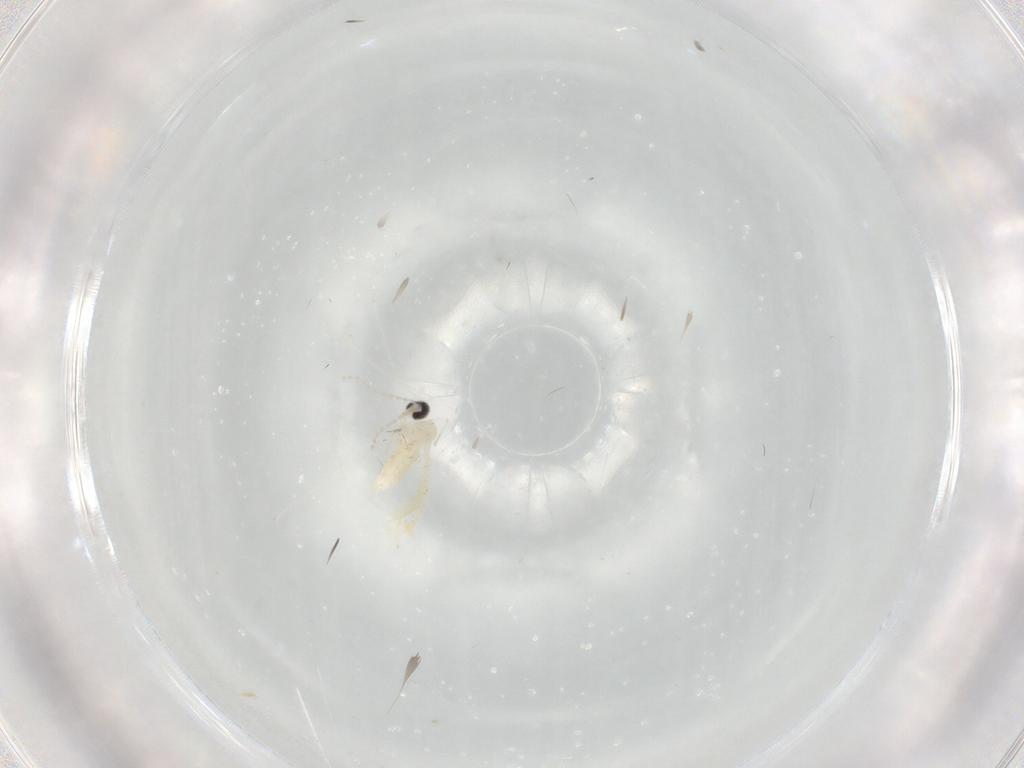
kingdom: Animalia
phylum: Arthropoda
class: Insecta
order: Diptera
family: Cecidomyiidae
